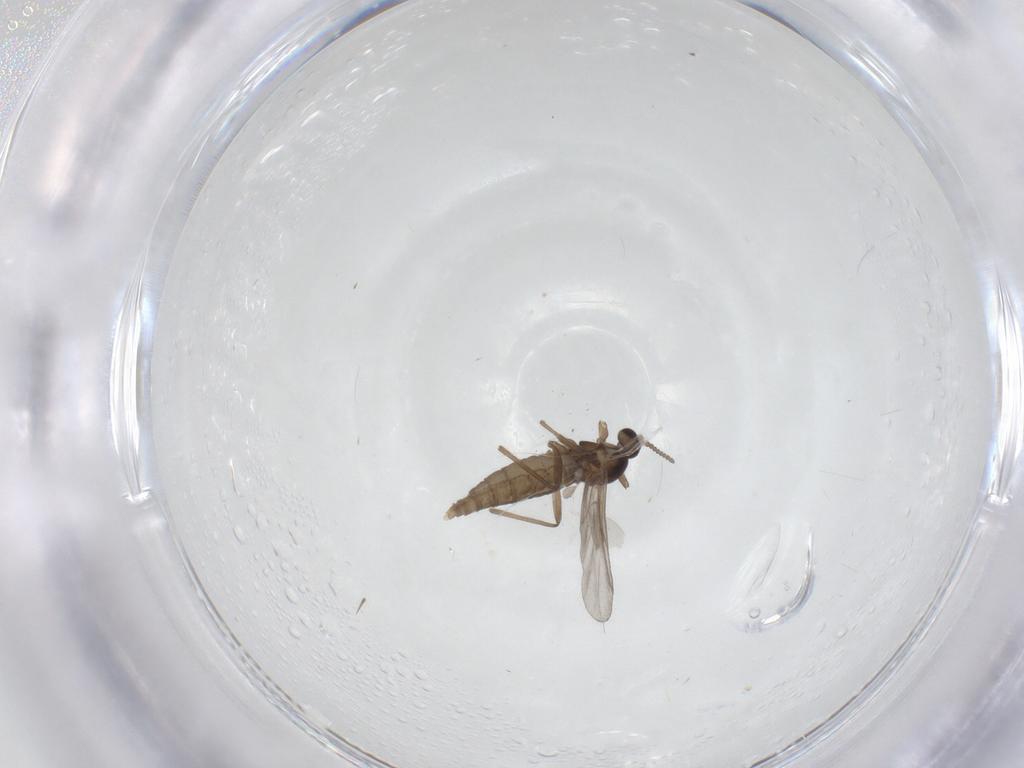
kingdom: Animalia
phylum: Arthropoda
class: Insecta
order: Diptera
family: Cecidomyiidae
